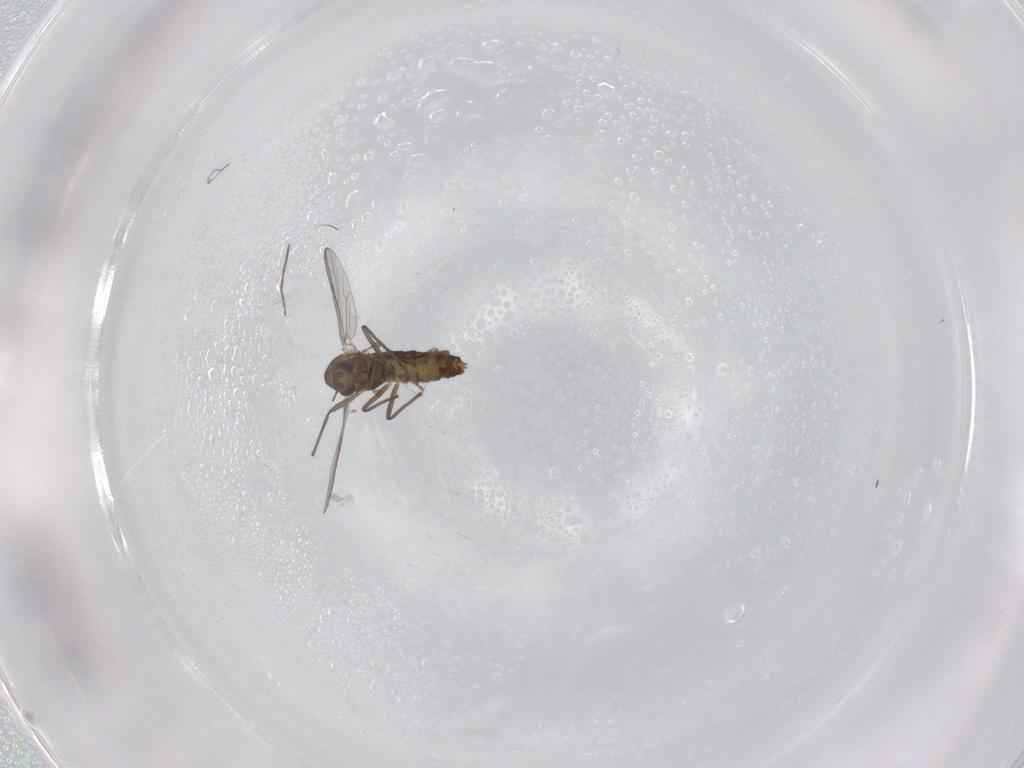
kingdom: Animalia
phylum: Arthropoda
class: Insecta
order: Diptera
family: Chironomidae
